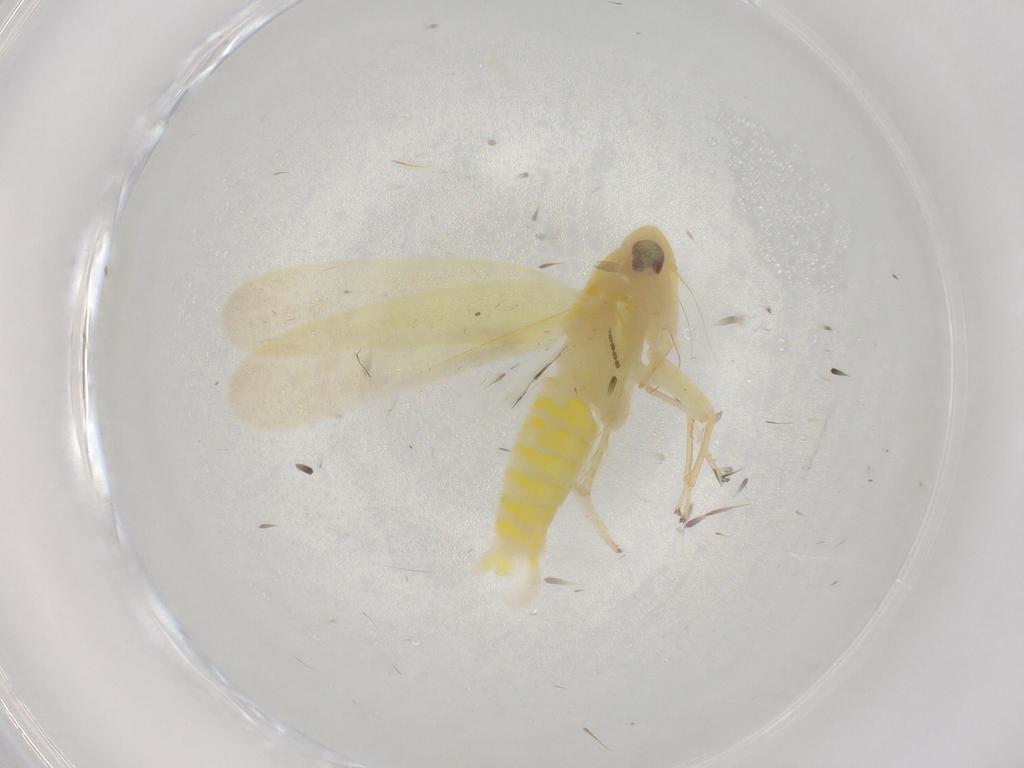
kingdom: Animalia
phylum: Arthropoda
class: Insecta
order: Hemiptera
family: Cicadellidae
